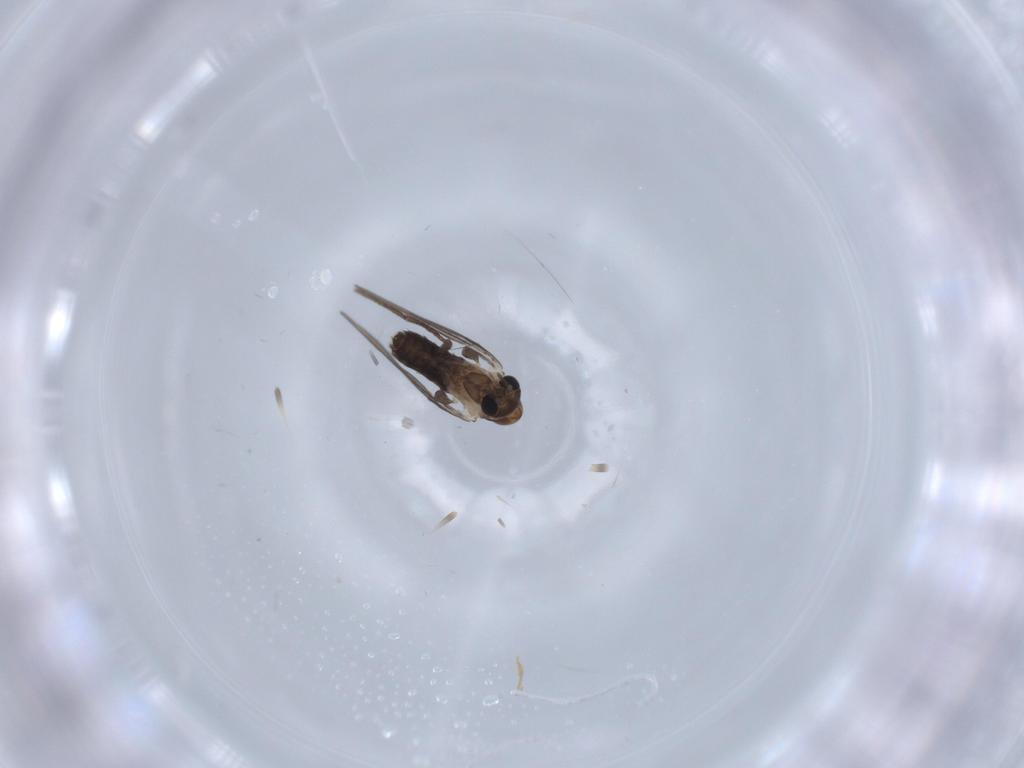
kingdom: Animalia
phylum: Arthropoda
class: Insecta
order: Diptera
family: Psychodidae
